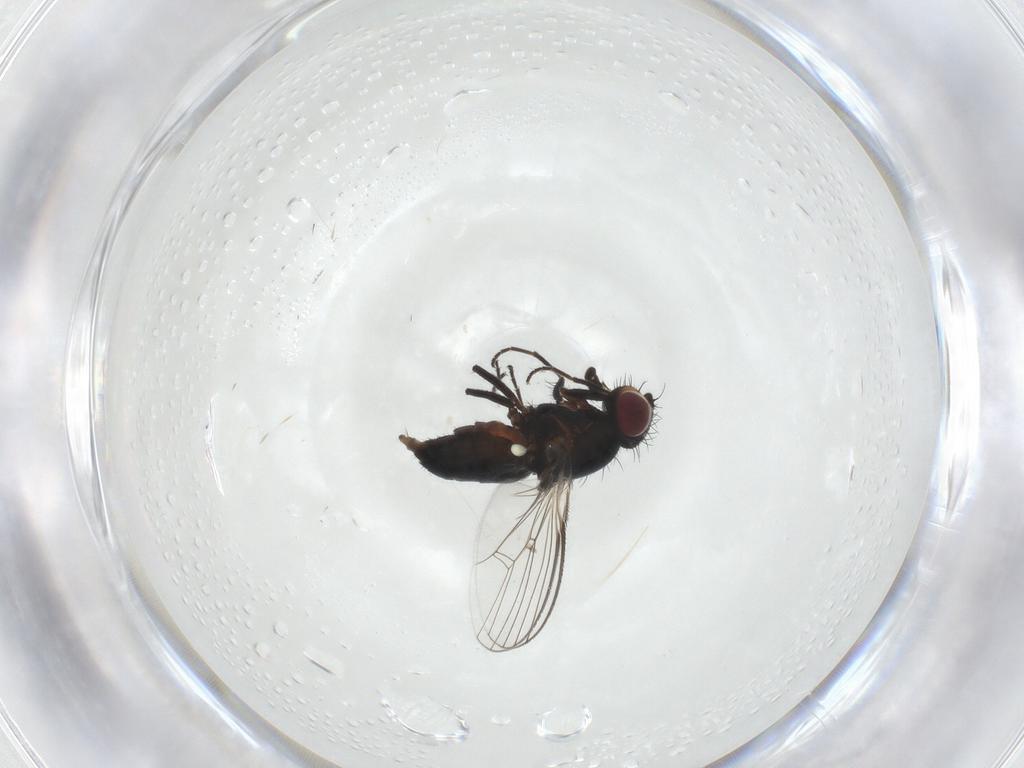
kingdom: Animalia
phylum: Arthropoda
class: Insecta
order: Diptera
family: Carnidae
